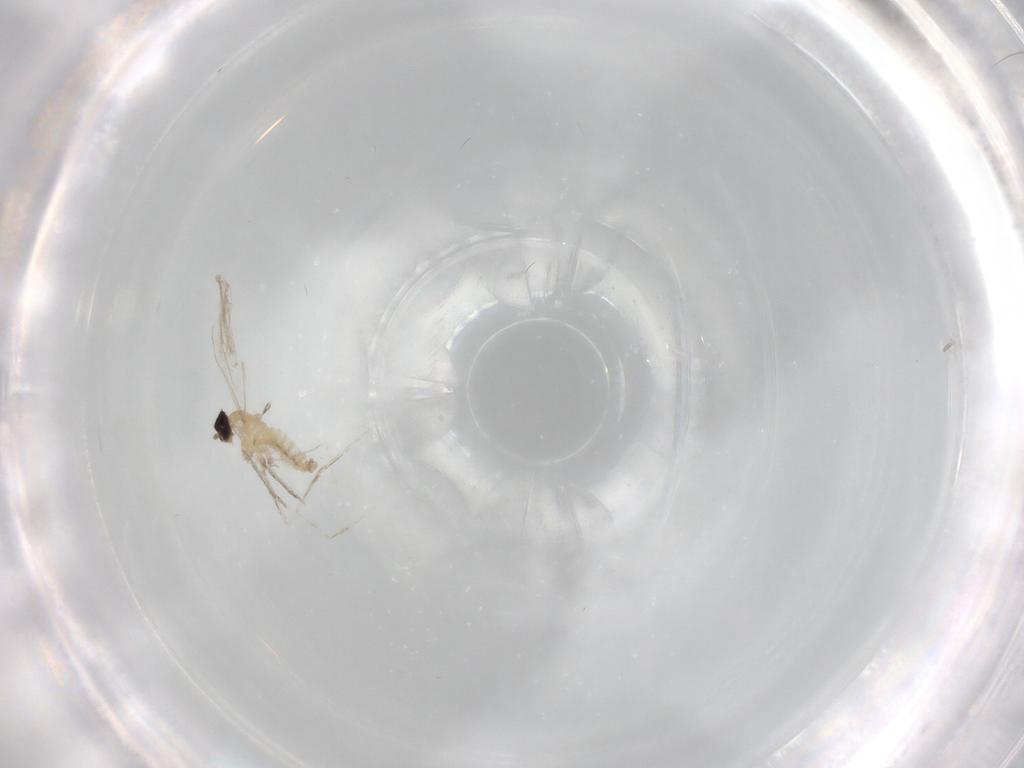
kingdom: Animalia
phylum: Arthropoda
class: Insecta
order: Diptera
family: Cecidomyiidae
